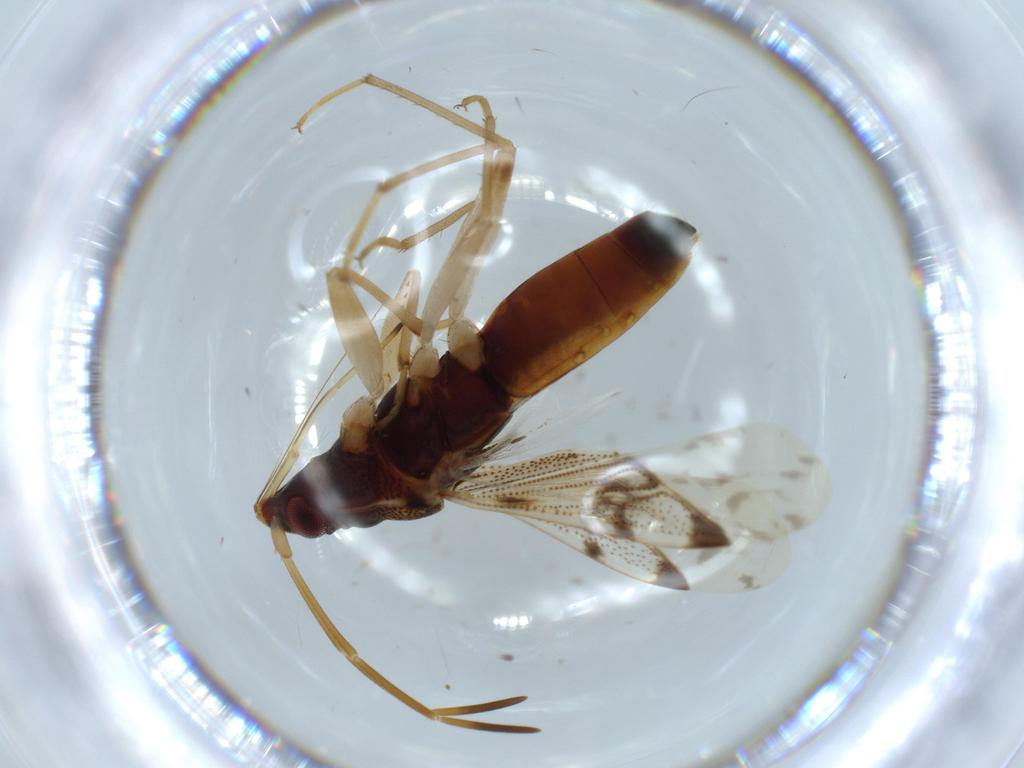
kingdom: Animalia
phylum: Arthropoda
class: Insecta
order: Hemiptera
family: Rhyparochromidae
